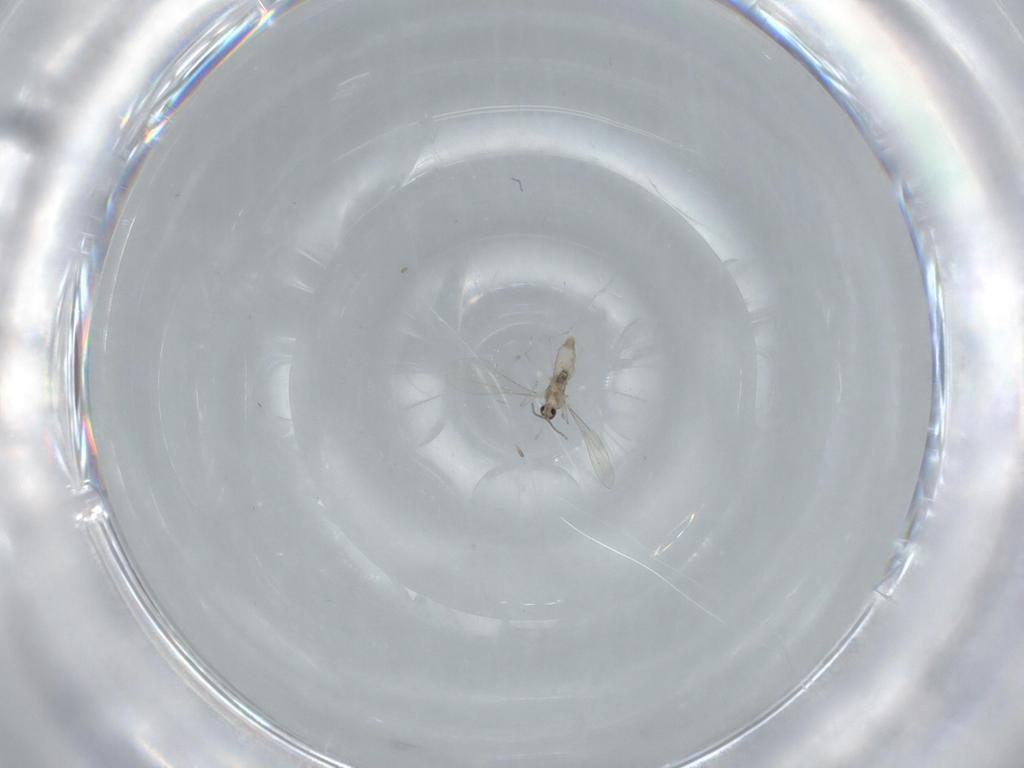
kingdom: Animalia
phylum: Arthropoda
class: Insecta
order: Diptera
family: Cecidomyiidae
